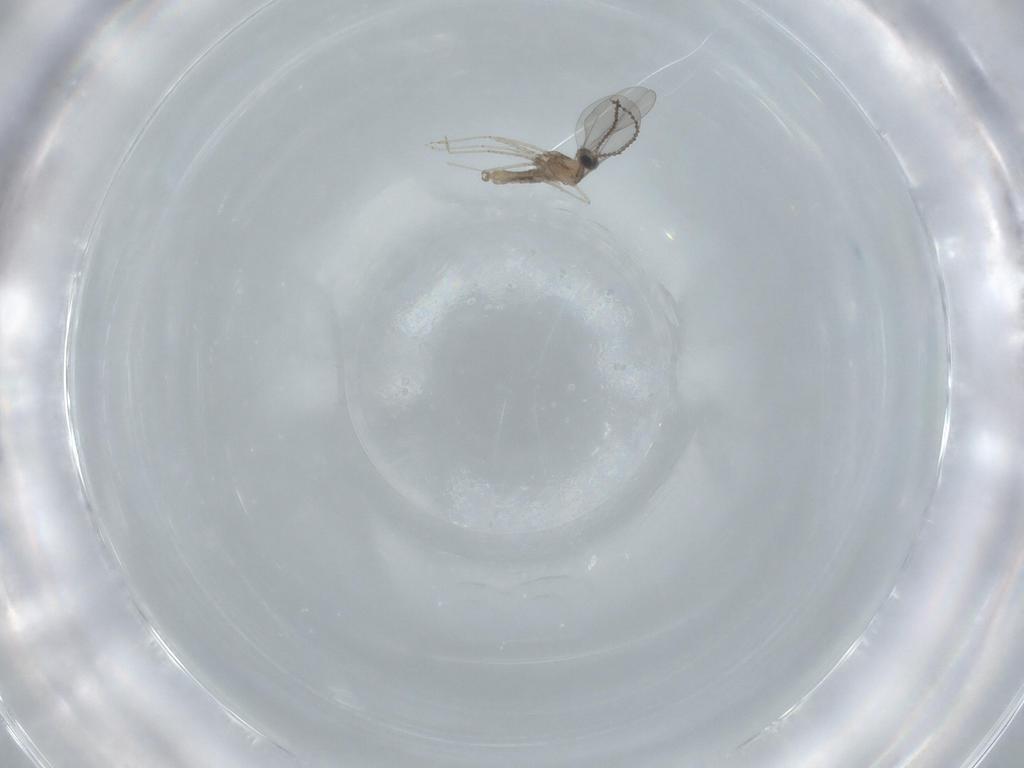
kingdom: Animalia
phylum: Arthropoda
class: Insecta
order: Diptera
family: Cecidomyiidae
